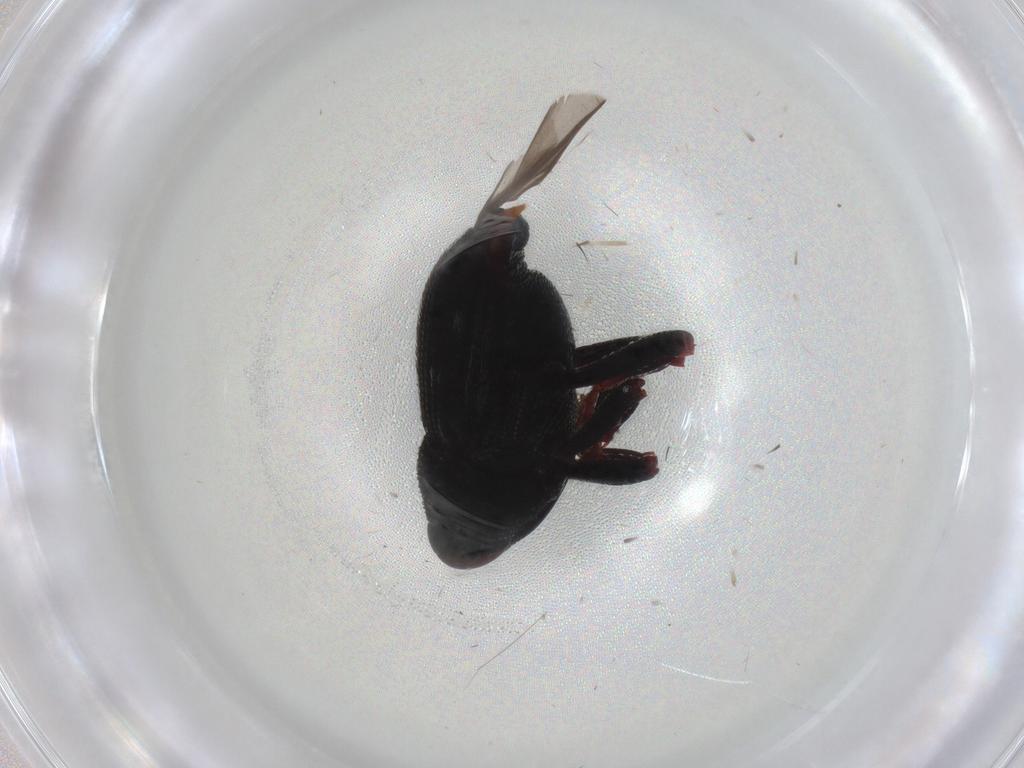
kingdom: Animalia
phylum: Arthropoda
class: Insecta
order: Coleoptera
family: Curculionidae
